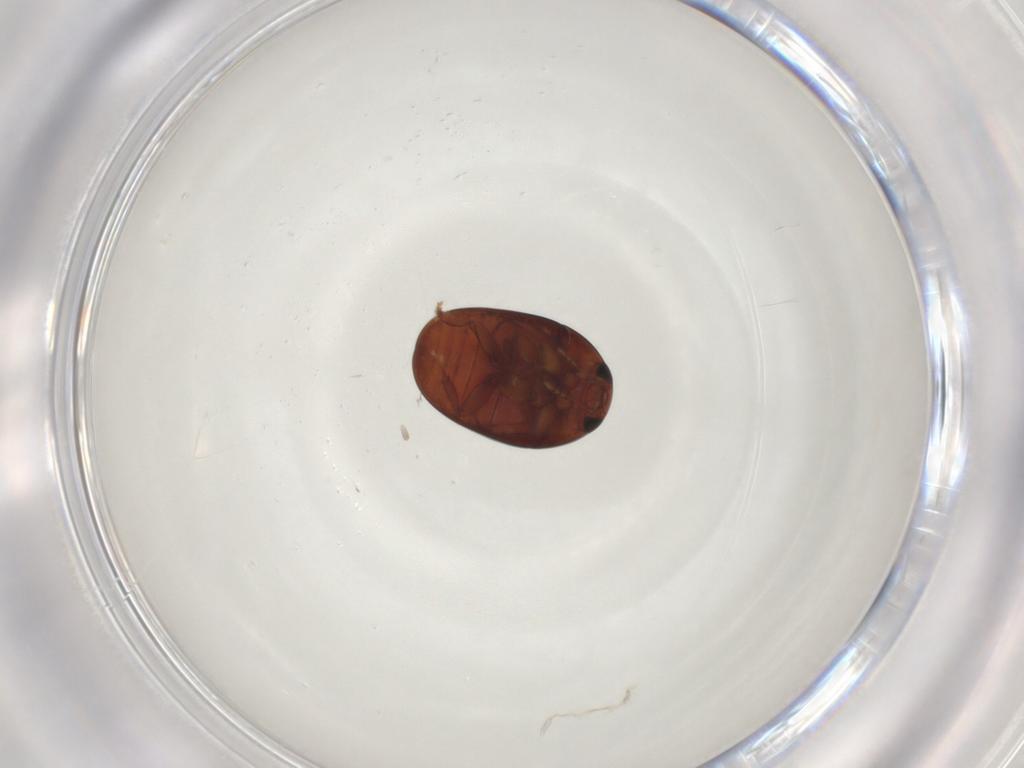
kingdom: Animalia
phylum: Arthropoda
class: Insecta
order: Coleoptera
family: Phalacridae
